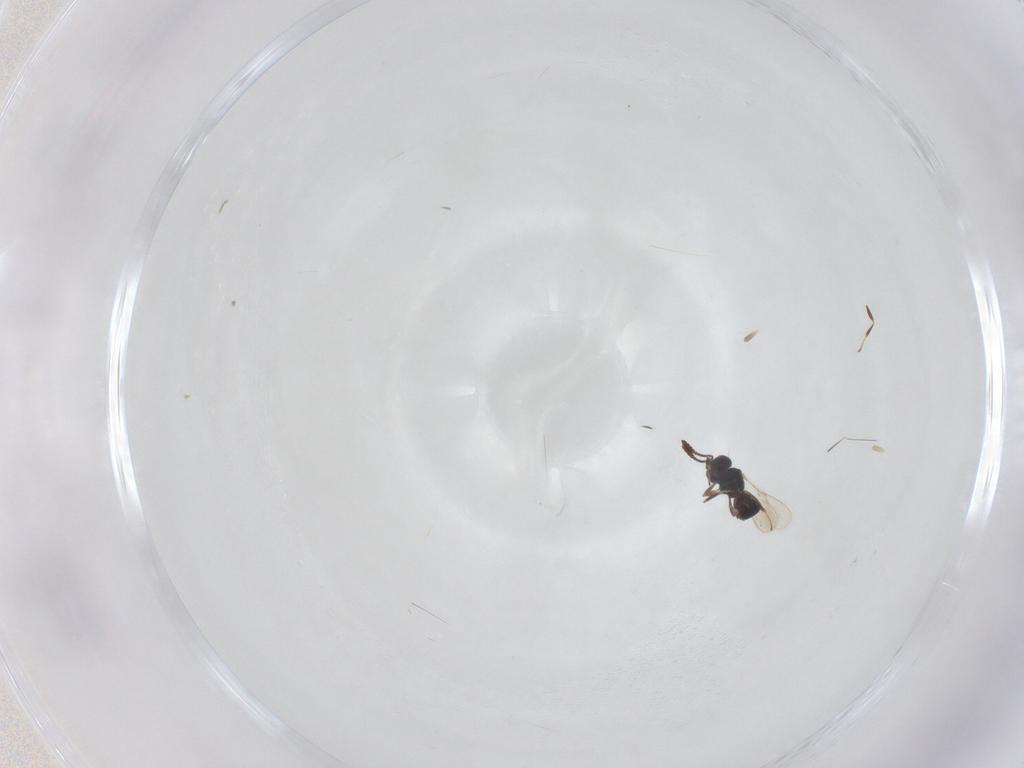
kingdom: Animalia
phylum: Arthropoda
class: Insecta
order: Hymenoptera
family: Scelionidae
